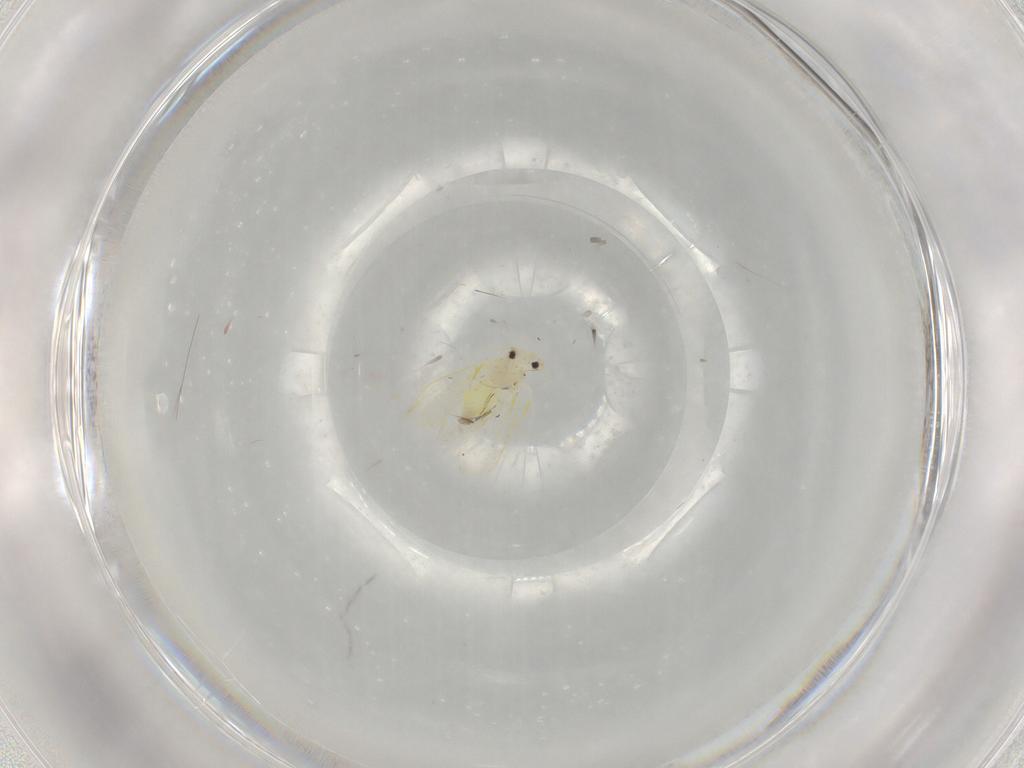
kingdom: Animalia
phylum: Arthropoda
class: Insecta
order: Hemiptera
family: Aleyrodidae
